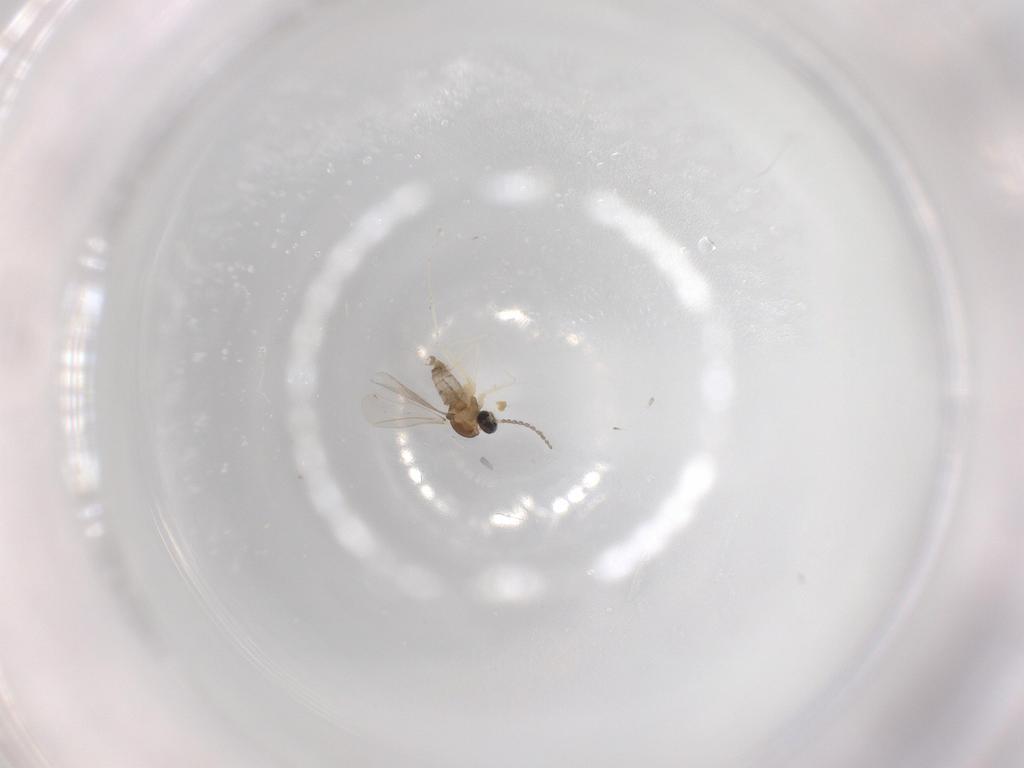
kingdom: Animalia
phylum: Arthropoda
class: Insecta
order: Diptera
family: Cecidomyiidae
